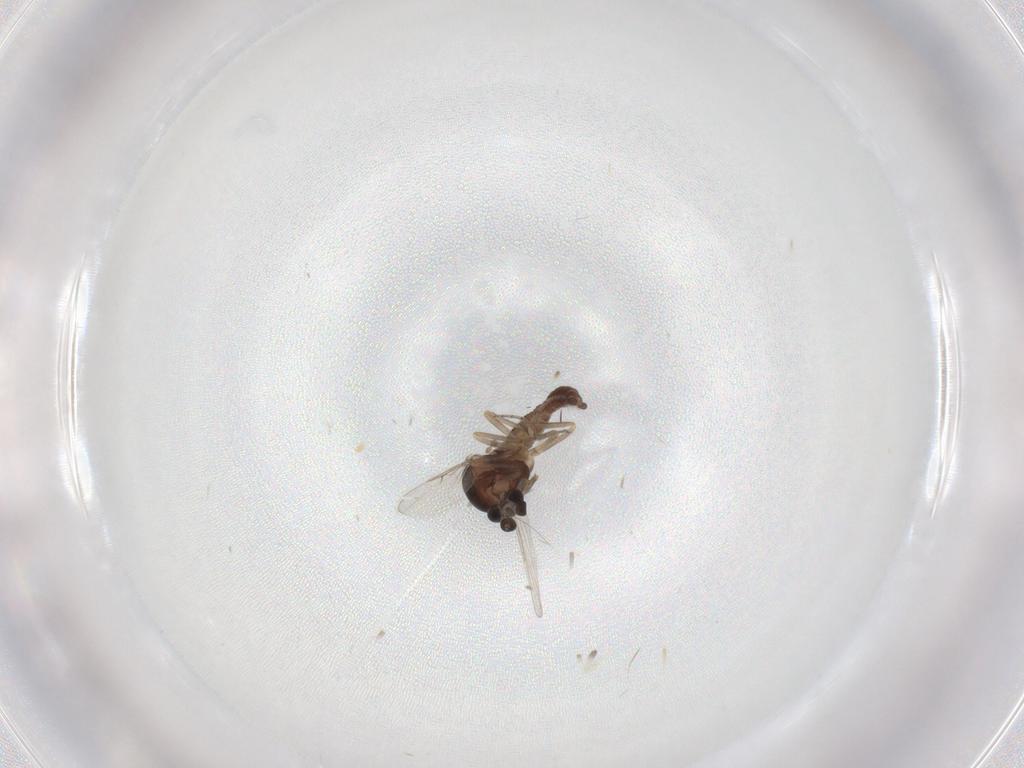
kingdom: Animalia
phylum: Arthropoda
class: Insecta
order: Diptera
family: Ceratopogonidae
